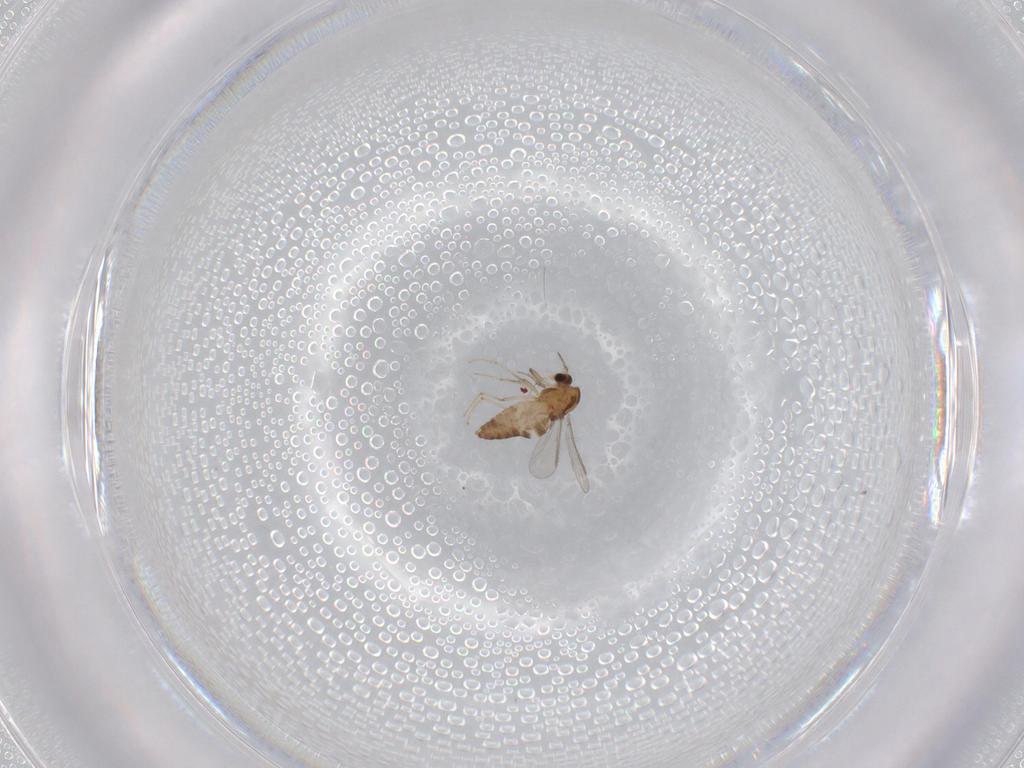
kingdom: Animalia
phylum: Arthropoda
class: Insecta
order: Diptera
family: Chironomidae
